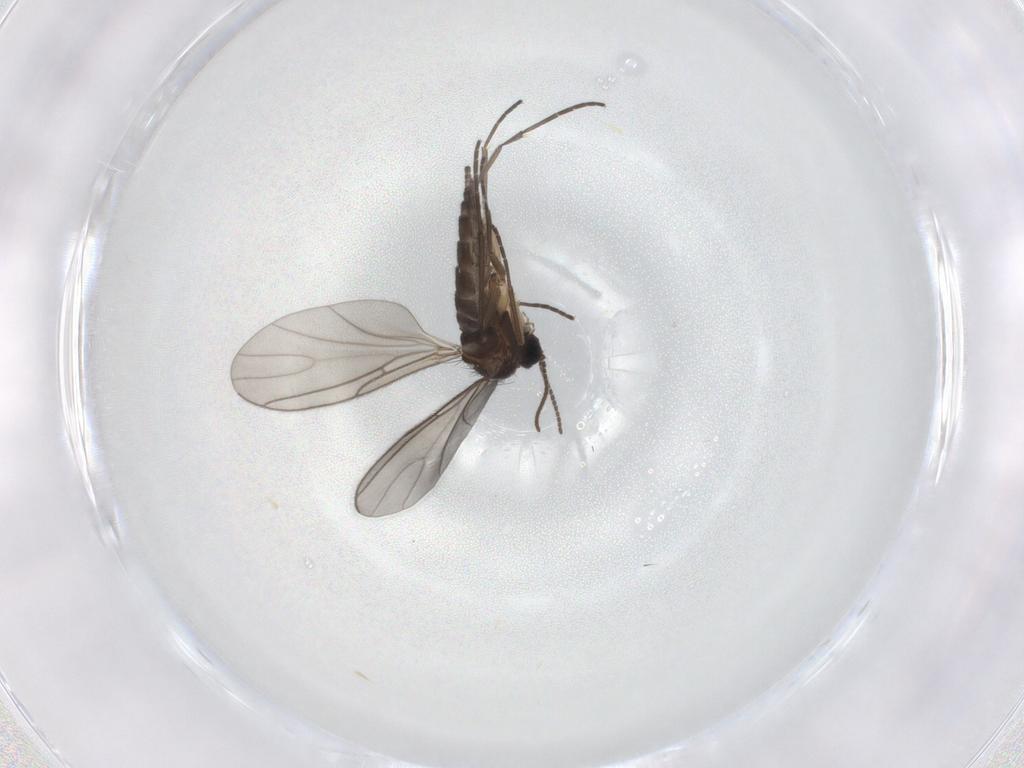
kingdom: Animalia
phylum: Arthropoda
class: Insecta
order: Diptera
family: Sciaridae
